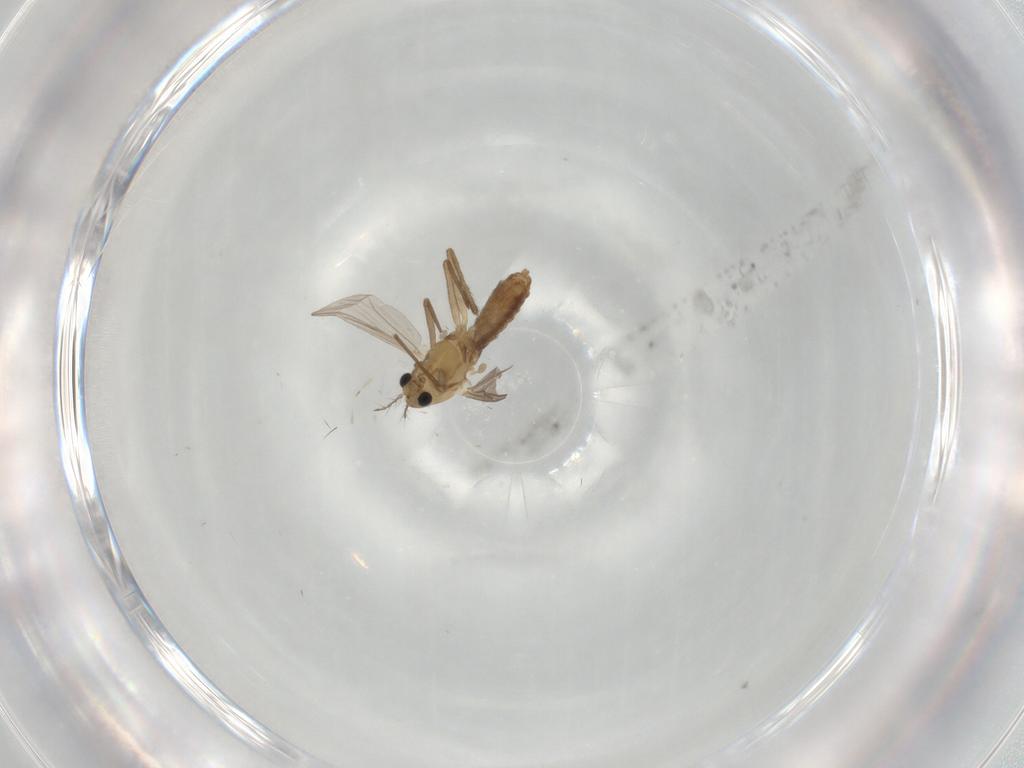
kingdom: Animalia
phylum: Arthropoda
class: Insecta
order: Diptera
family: Chironomidae
